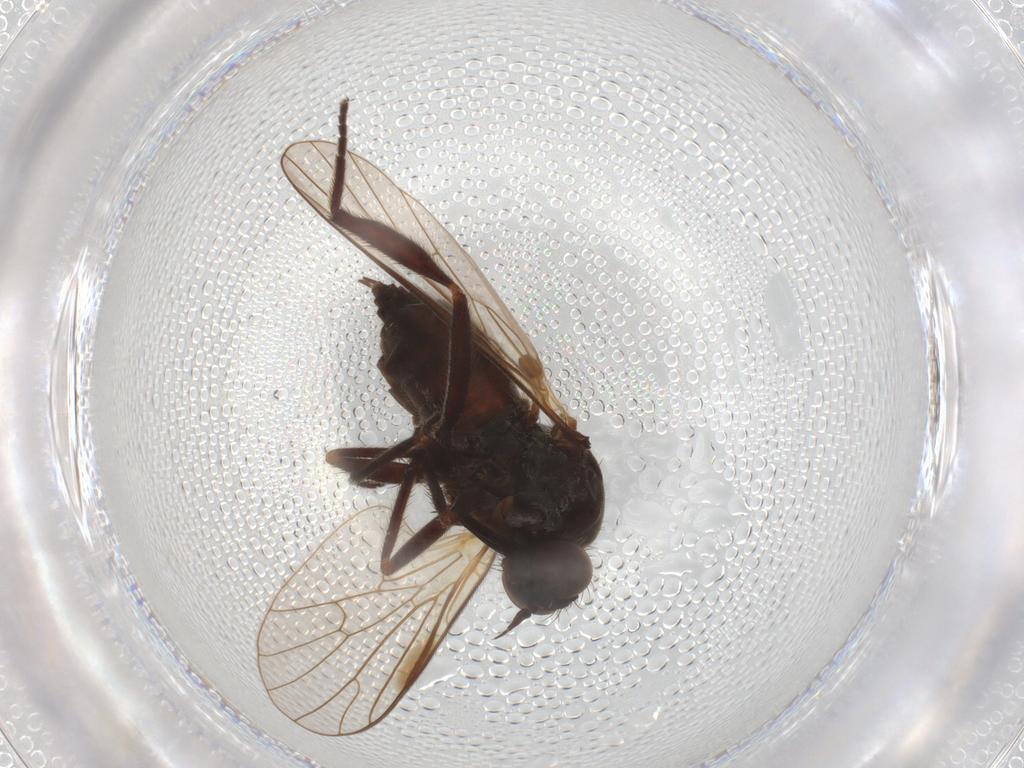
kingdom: Animalia
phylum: Arthropoda
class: Insecta
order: Diptera
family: Empididae
